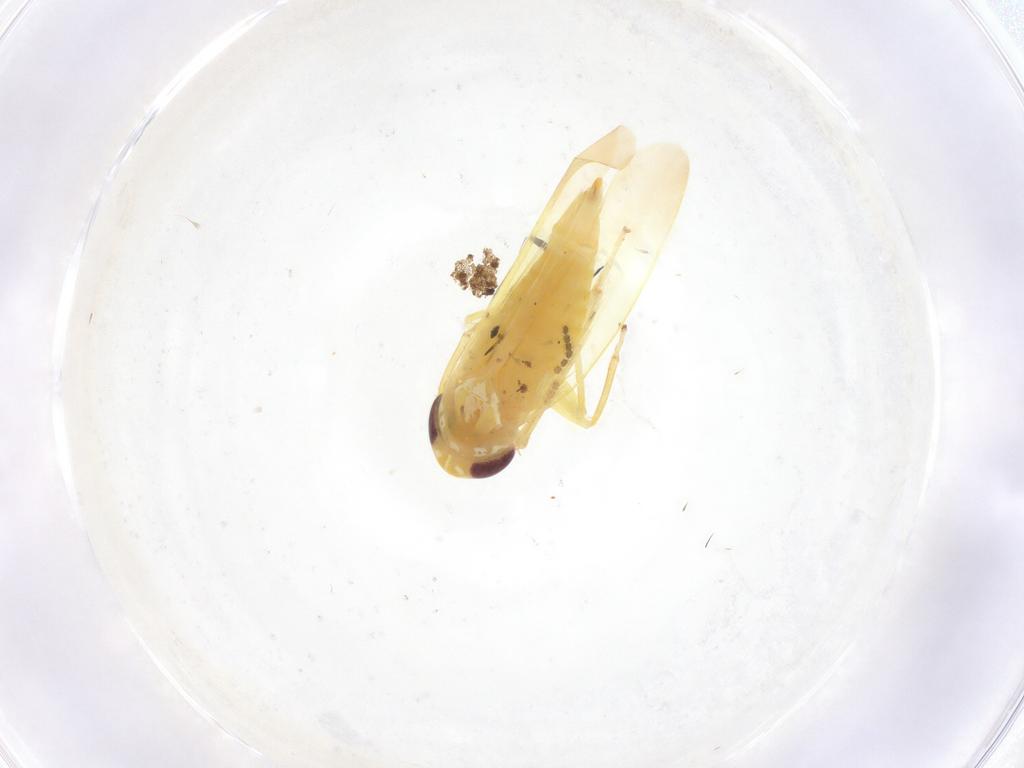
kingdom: Animalia
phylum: Arthropoda
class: Insecta
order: Hemiptera
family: Cicadellidae
